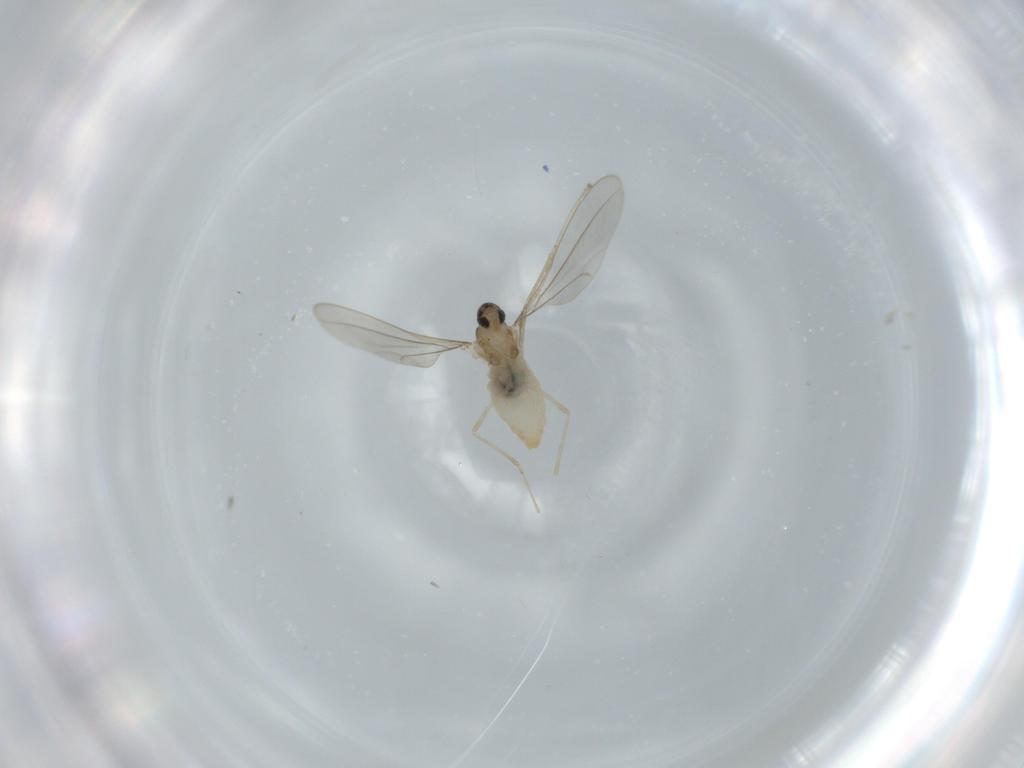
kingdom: Animalia
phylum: Arthropoda
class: Insecta
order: Diptera
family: Cecidomyiidae
